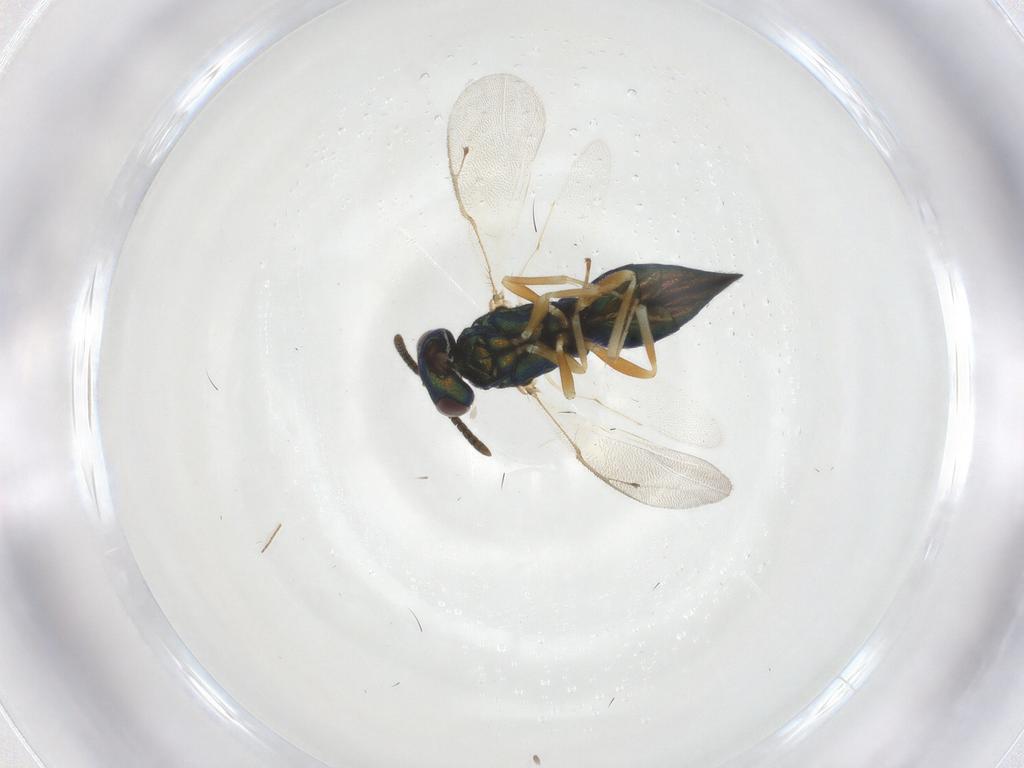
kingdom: Animalia
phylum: Arthropoda
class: Insecta
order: Hymenoptera
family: Pteromalidae
